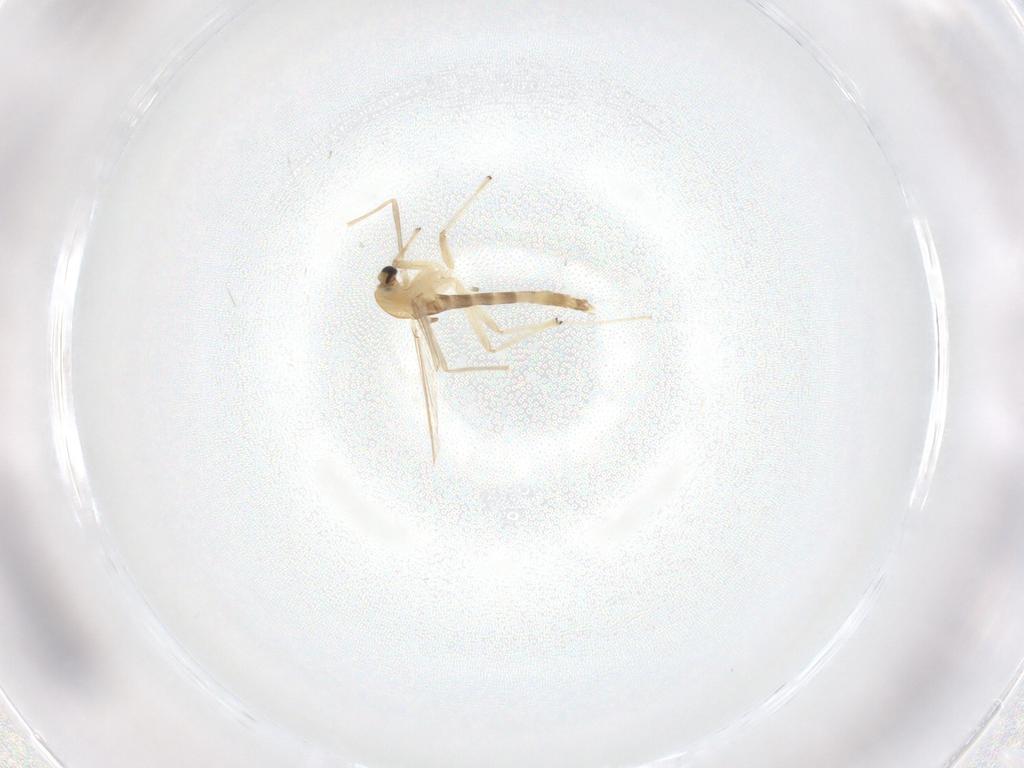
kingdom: Animalia
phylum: Arthropoda
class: Insecta
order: Diptera
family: Chironomidae
